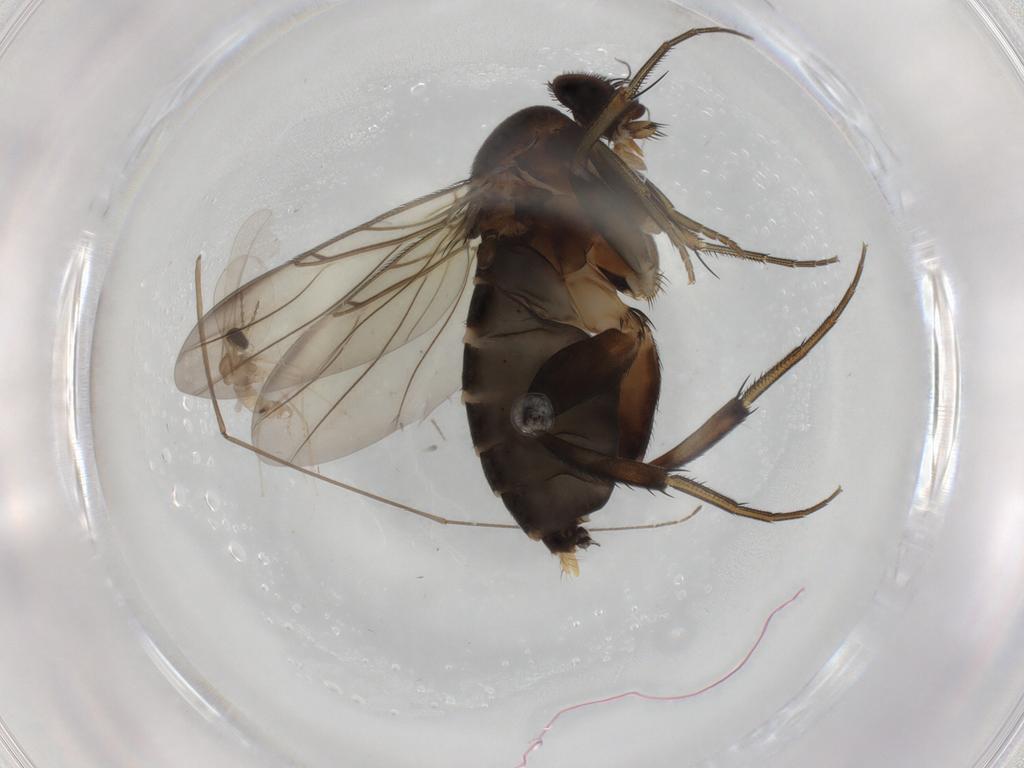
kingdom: Animalia
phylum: Arthropoda
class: Insecta
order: Diptera
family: Phoridae
